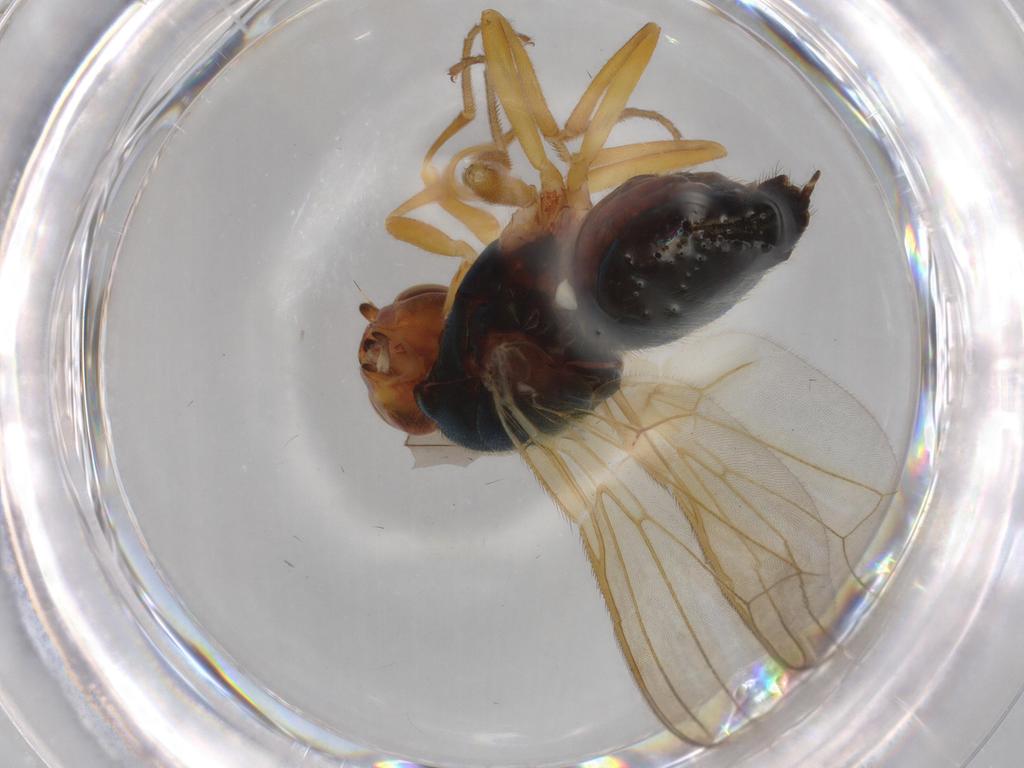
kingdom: Animalia
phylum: Arthropoda
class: Insecta
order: Diptera
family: Dolichopodidae
